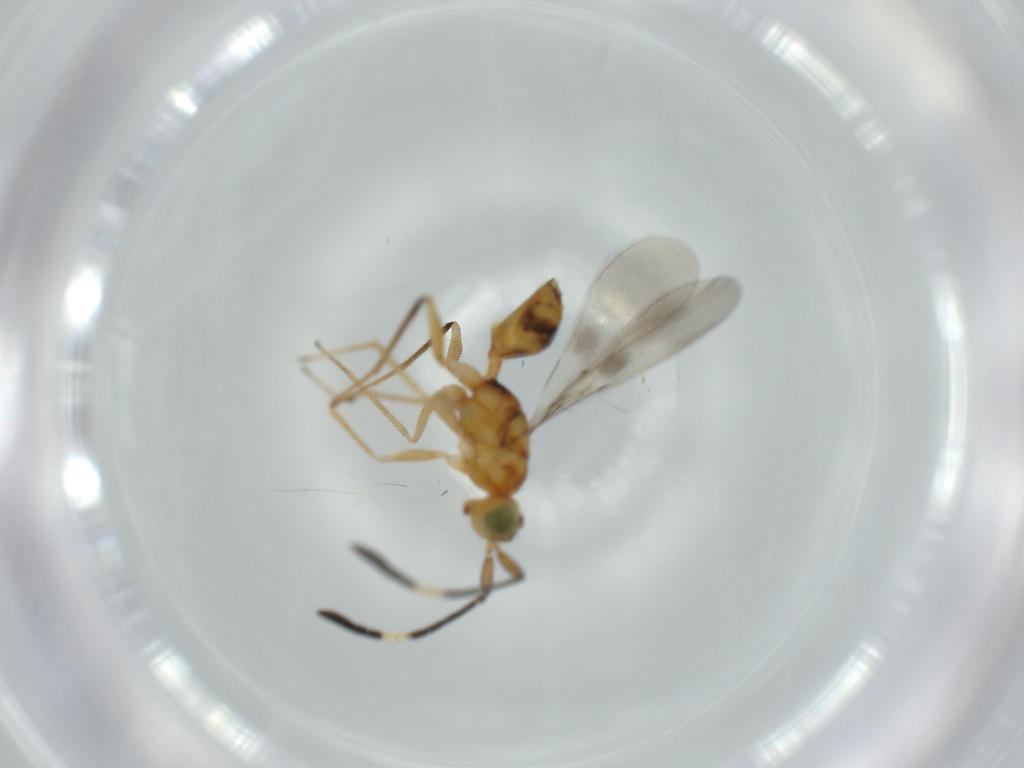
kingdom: Animalia
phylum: Arthropoda
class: Insecta
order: Hymenoptera
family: Mymaridae
